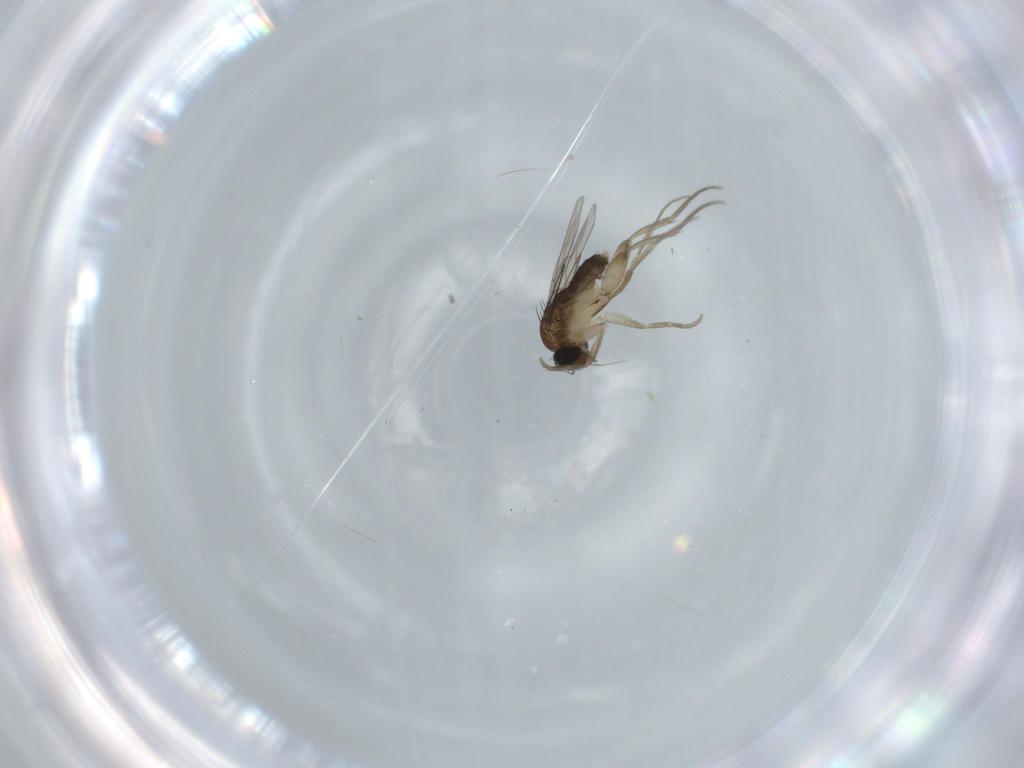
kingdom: Animalia
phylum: Arthropoda
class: Insecta
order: Diptera
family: Phoridae
